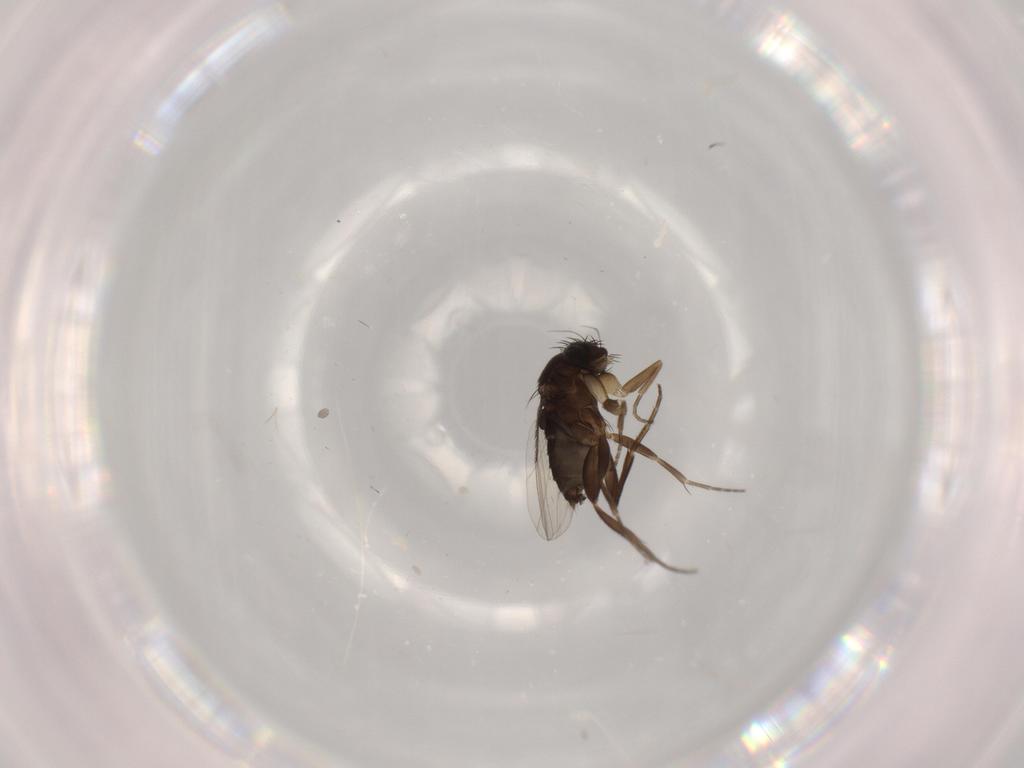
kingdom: Animalia
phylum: Arthropoda
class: Insecta
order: Diptera
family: Phoridae
